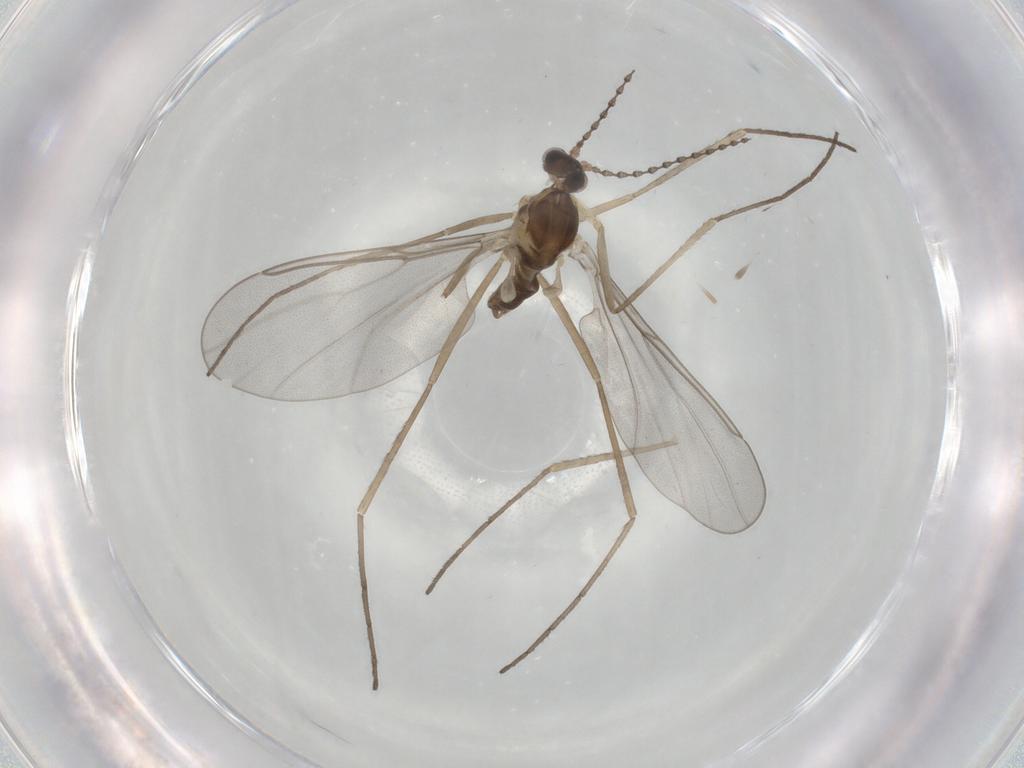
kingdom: Animalia
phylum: Arthropoda
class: Insecta
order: Diptera
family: Cecidomyiidae
